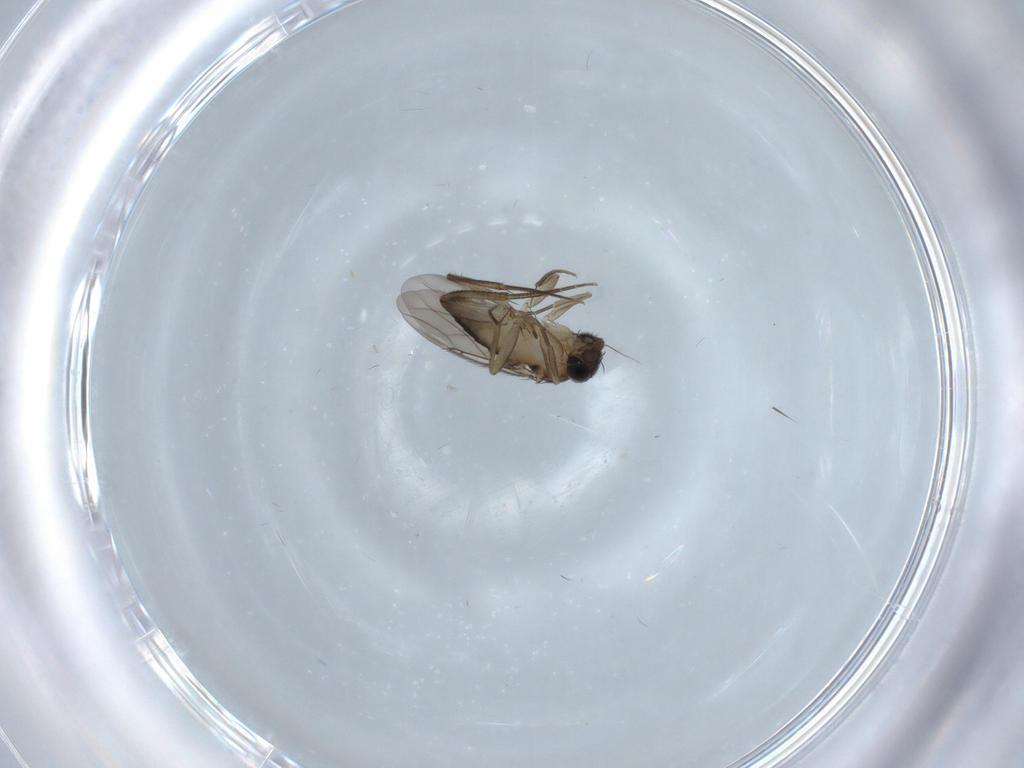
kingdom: Animalia
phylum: Arthropoda
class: Insecta
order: Diptera
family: Phoridae
